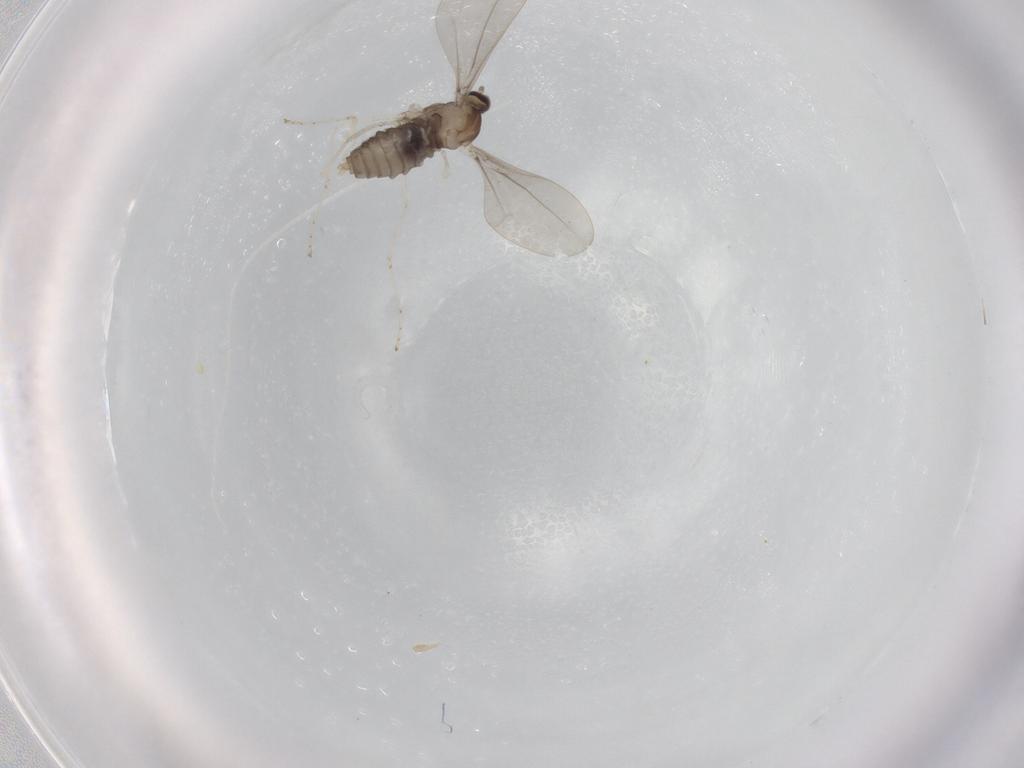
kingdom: Animalia
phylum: Arthropoda
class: Insecta
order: Diptera
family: Cecidomyiidae
